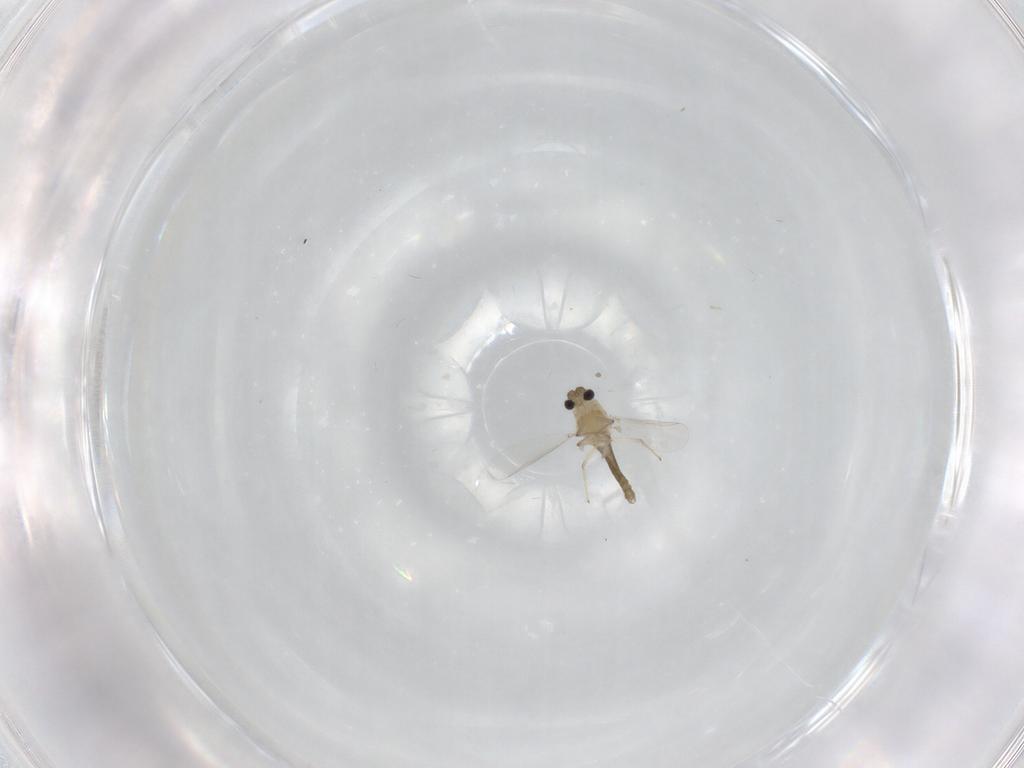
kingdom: Animalia
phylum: Arthropoda
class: Insecta
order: Diptera
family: Chironomidae
